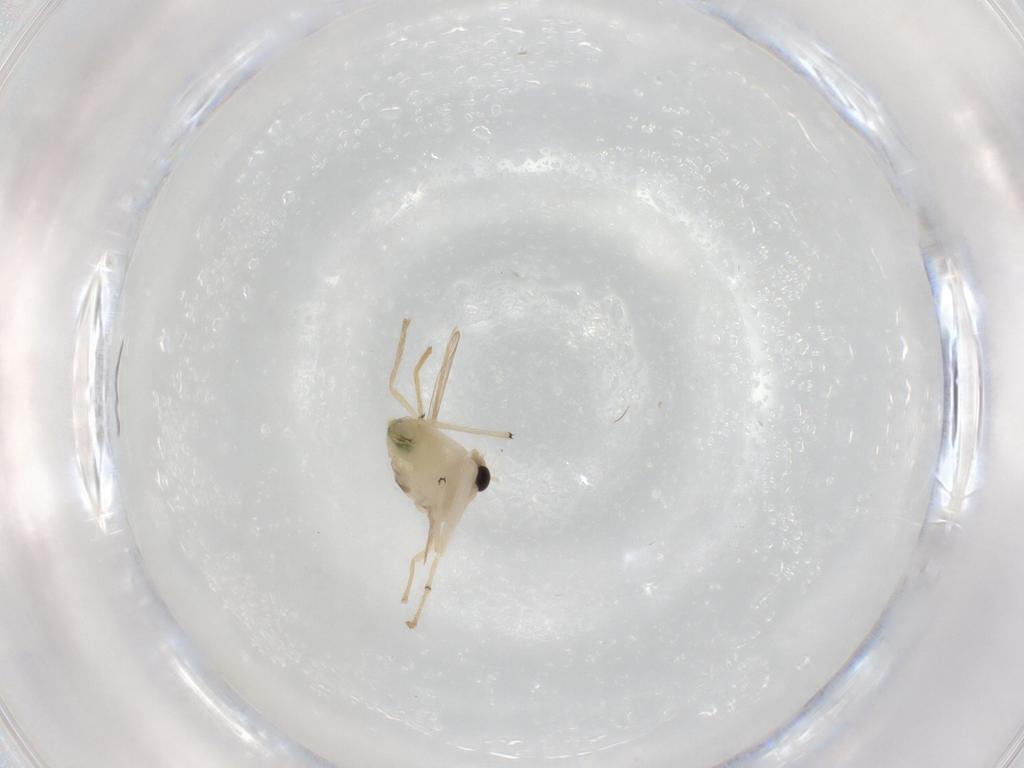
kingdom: Animalia
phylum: Arthropoda
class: Insecta
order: Diptera
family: Chironomidae
